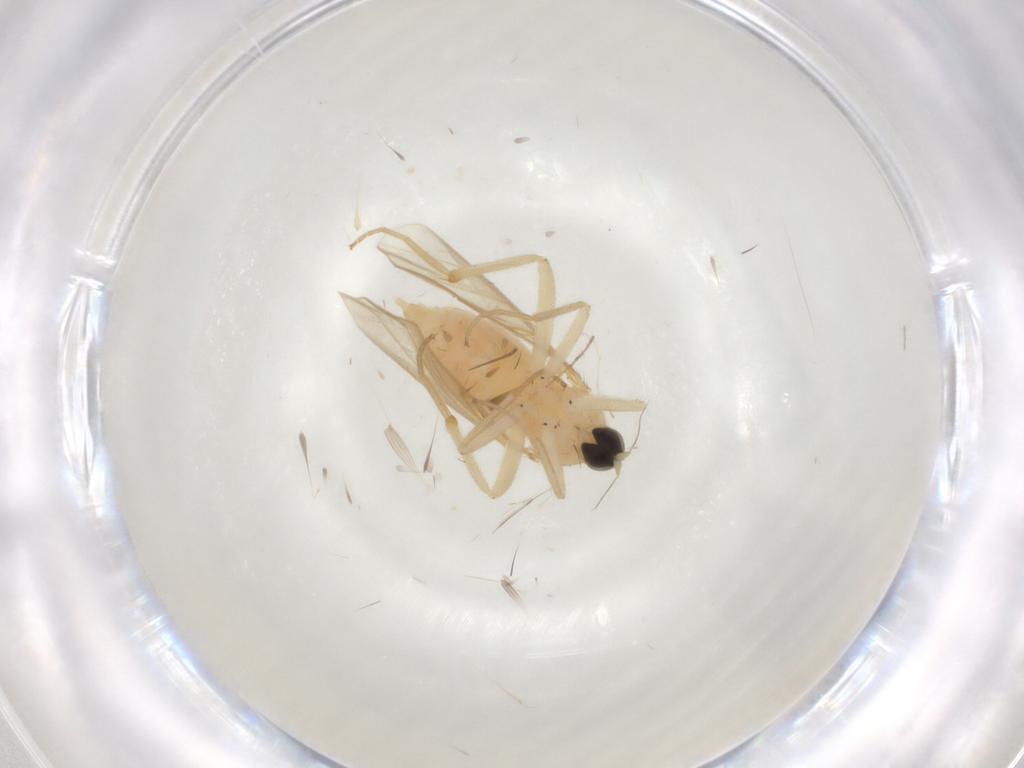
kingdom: Animalia
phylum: Arthropoda
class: Insecta
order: Diptera
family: Hybotidae
